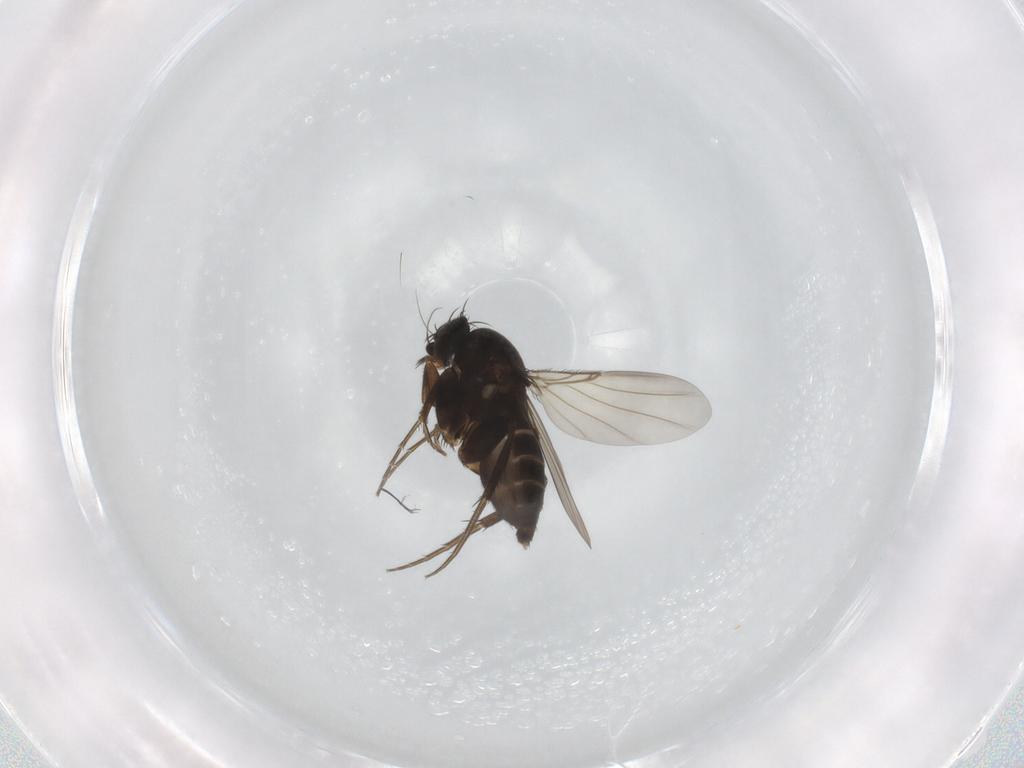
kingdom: Animalia
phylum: Arthropoda
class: Insecta
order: Diptera
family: Phoridae
